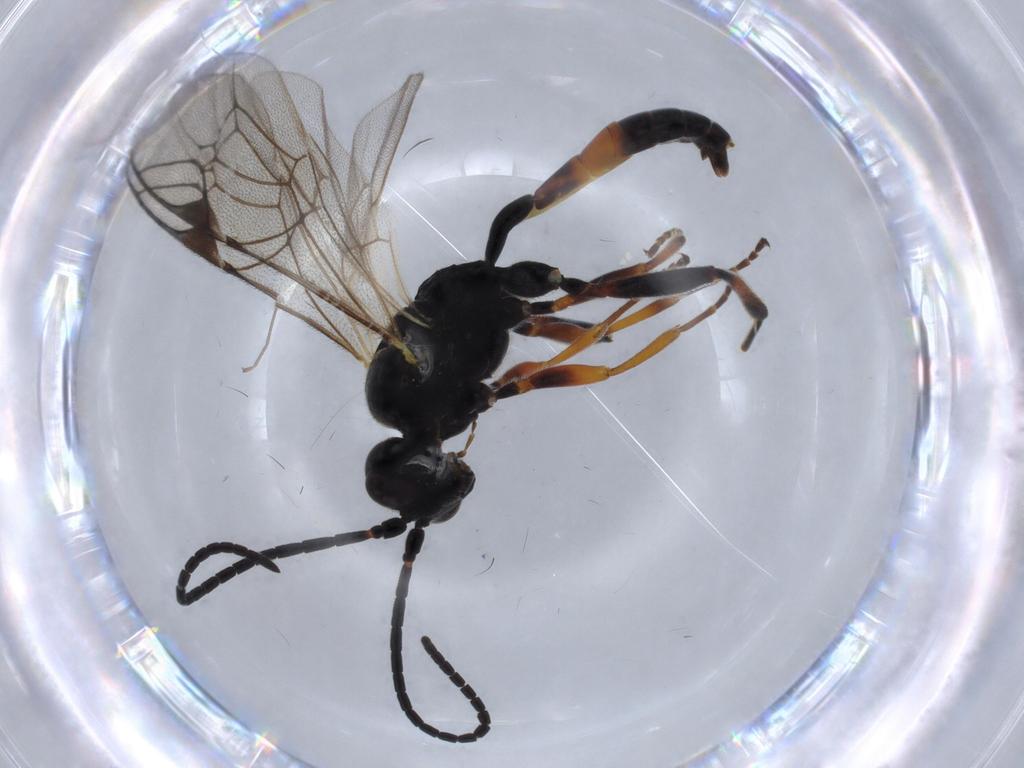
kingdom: Animalia
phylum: Arthropoda
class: Insecta
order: Hymenoptera
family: Ichneumonidae
